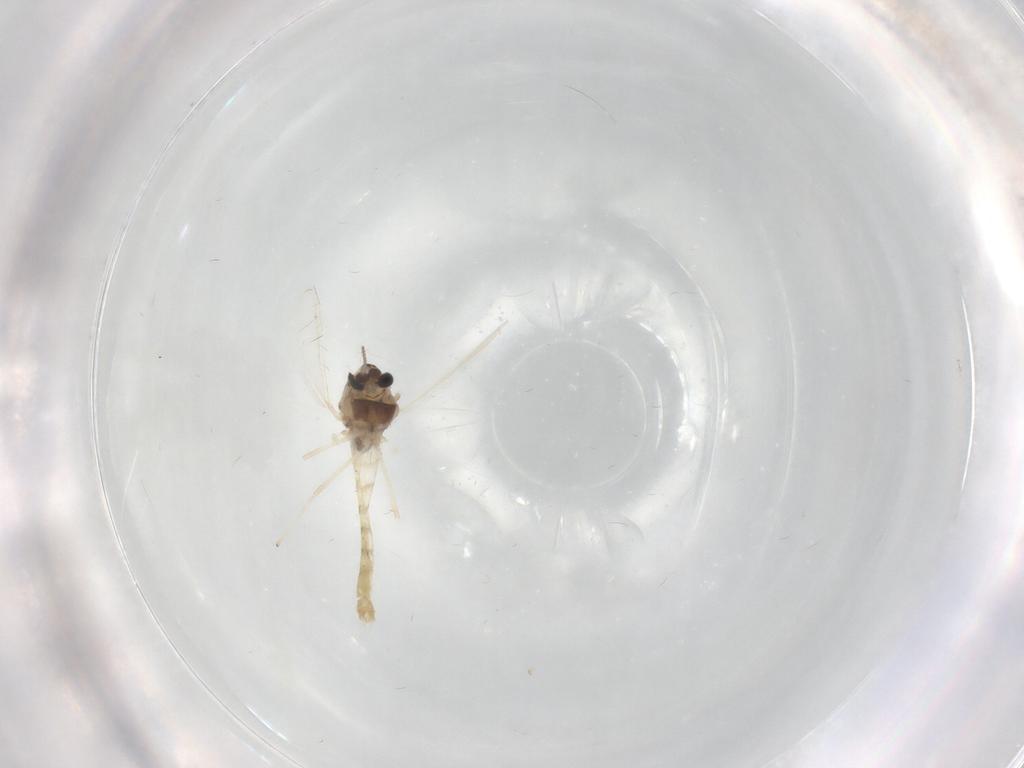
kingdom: Animalia
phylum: Arthropoda
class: Insecta
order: Diptera
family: Chironomidae
